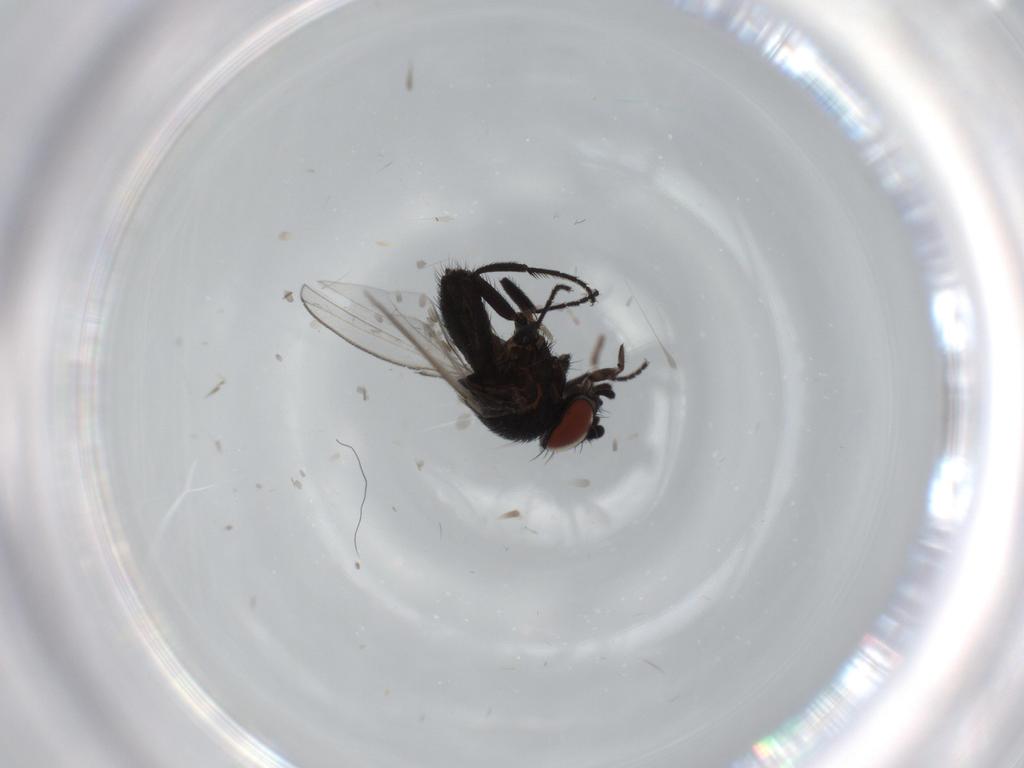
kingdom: Animalia
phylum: Arthropoda
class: Insecta
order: Diptera
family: Milichiidae
